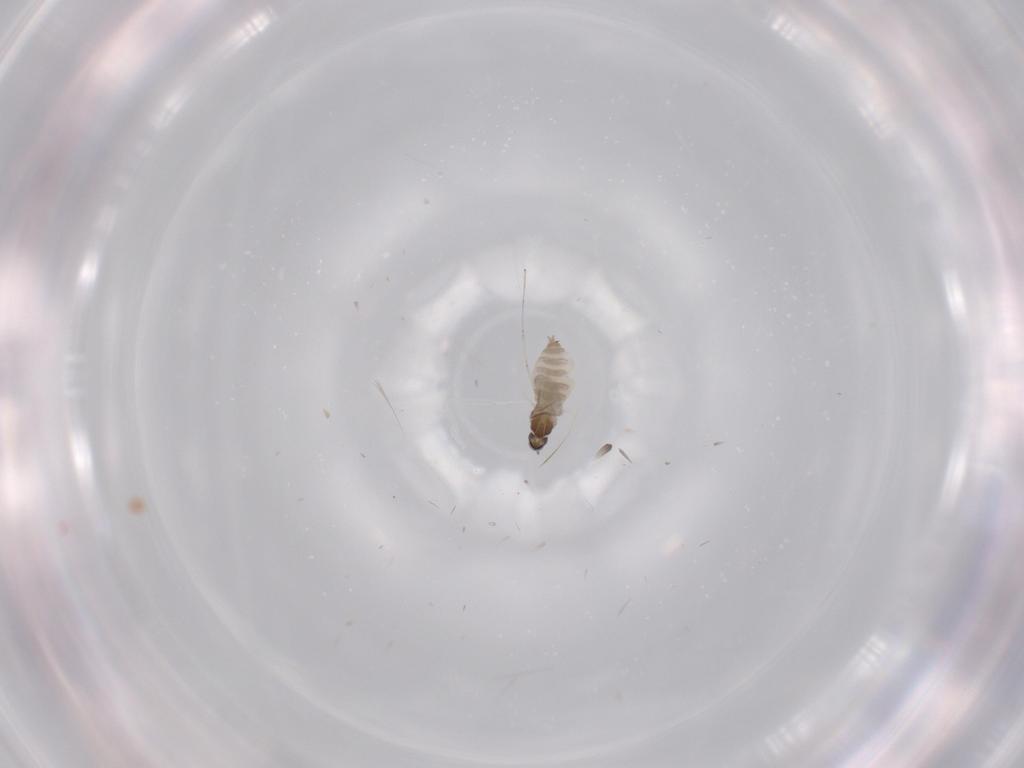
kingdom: Animalia
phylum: Arthropoda
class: Insecta
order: Diptera
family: Cecidomyiidae
